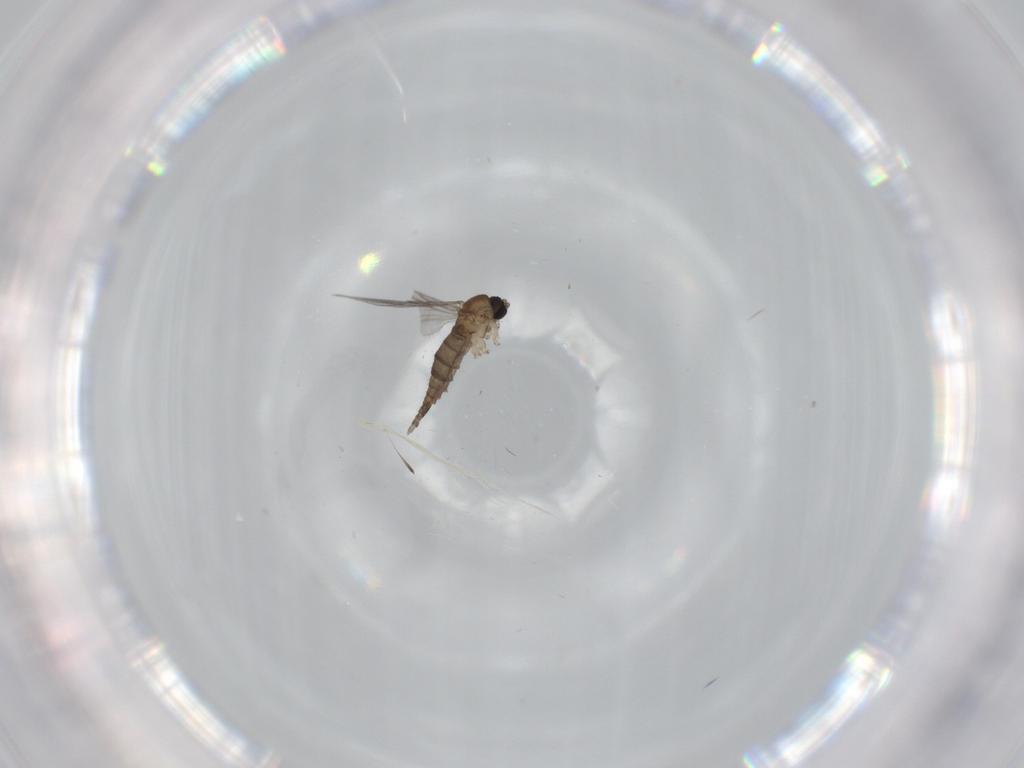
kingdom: Animalia
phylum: Arthropoda
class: Insecta
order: Diptera
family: Sciaridae
